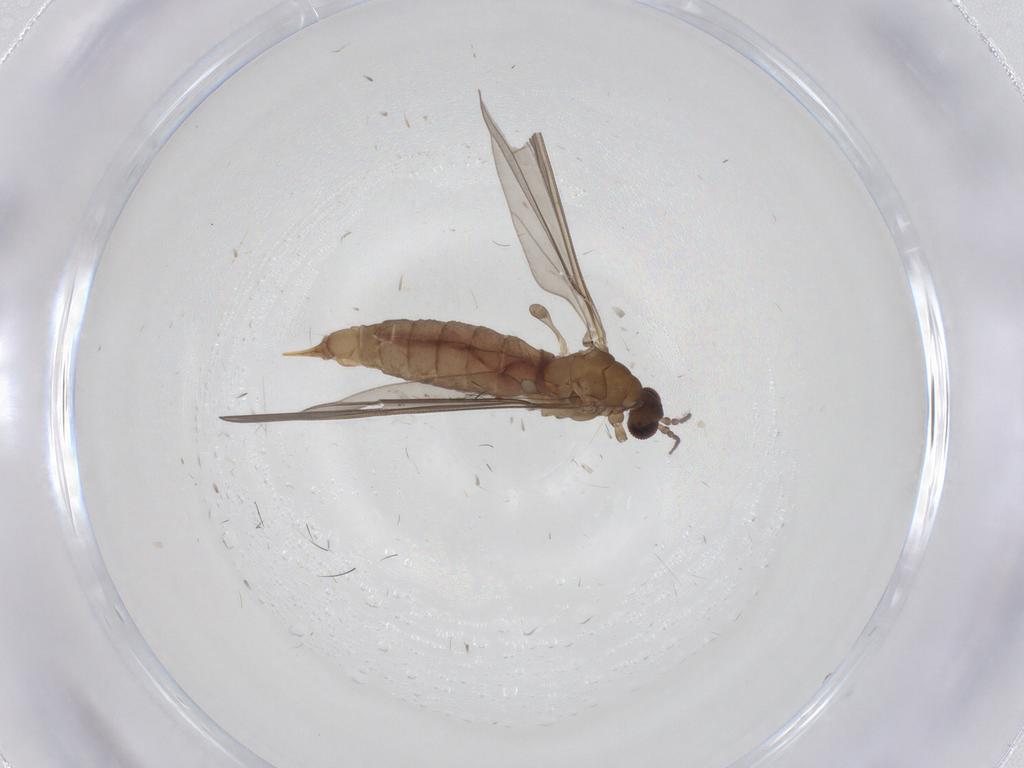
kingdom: Animalia
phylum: Arthropoda
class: Insecta
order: Diptera
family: Limoniidae
